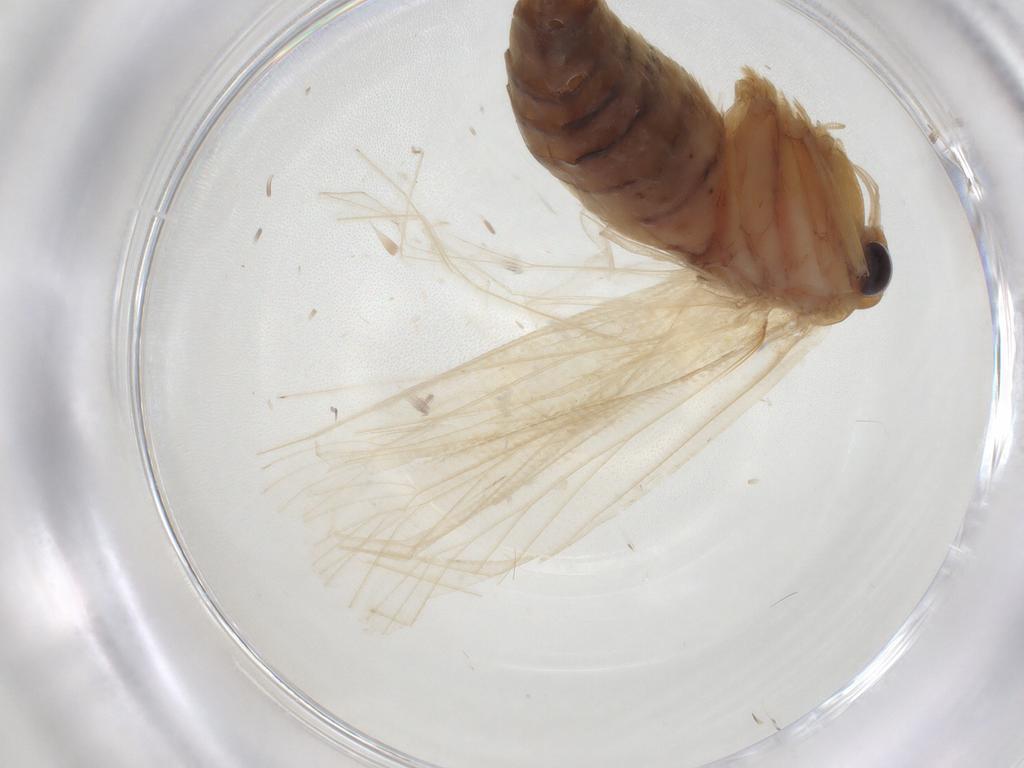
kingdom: Animalia
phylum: Arthropoda
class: Insecta
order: Lepidoptera
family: Depressariidae
